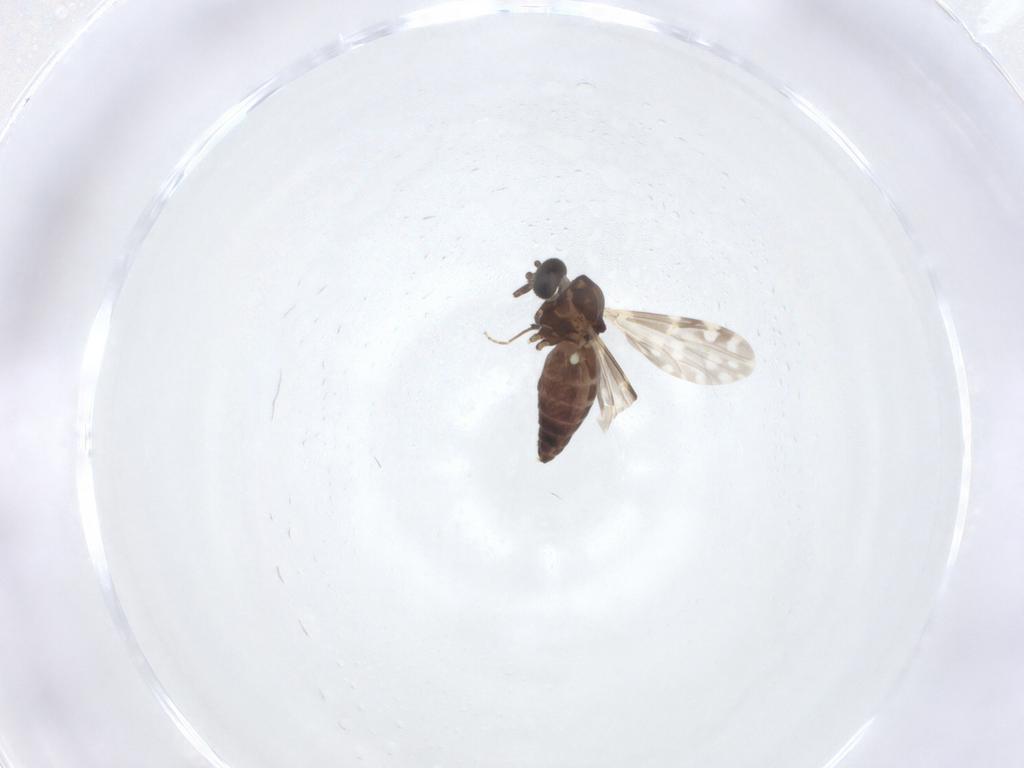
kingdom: Animalia
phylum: Arthropoda
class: Insecta
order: Diptera
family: Ceratopogonidae
